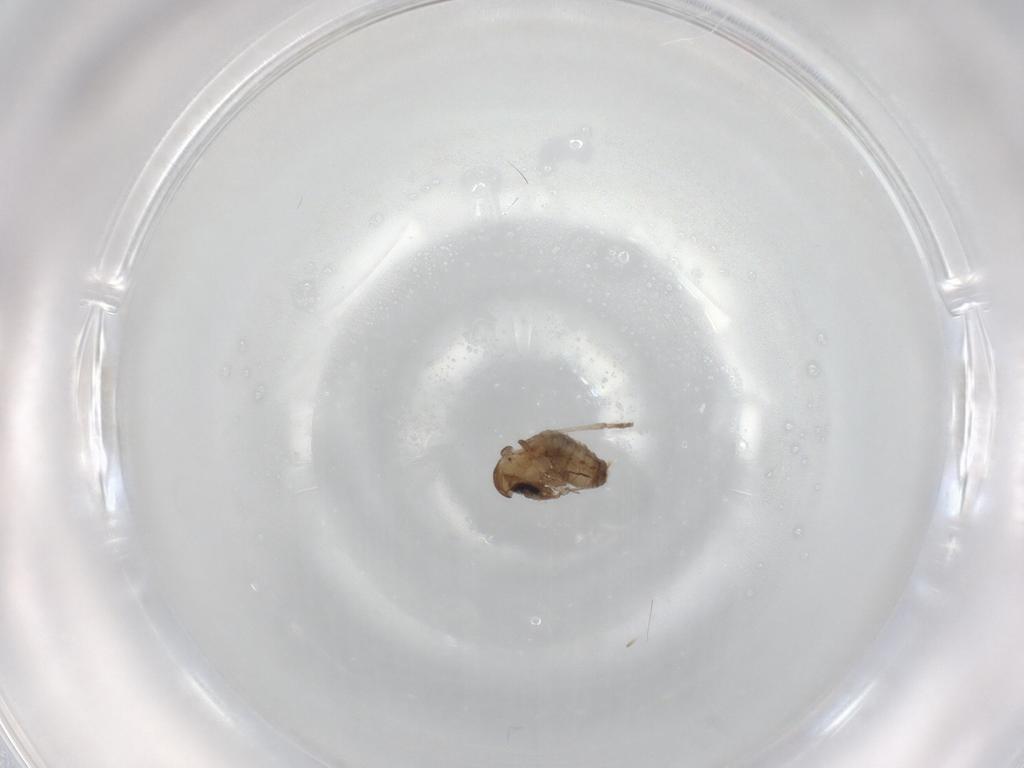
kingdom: Animalia
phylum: Arthropoda
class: Insecta
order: Diptera
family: Psychodidae
